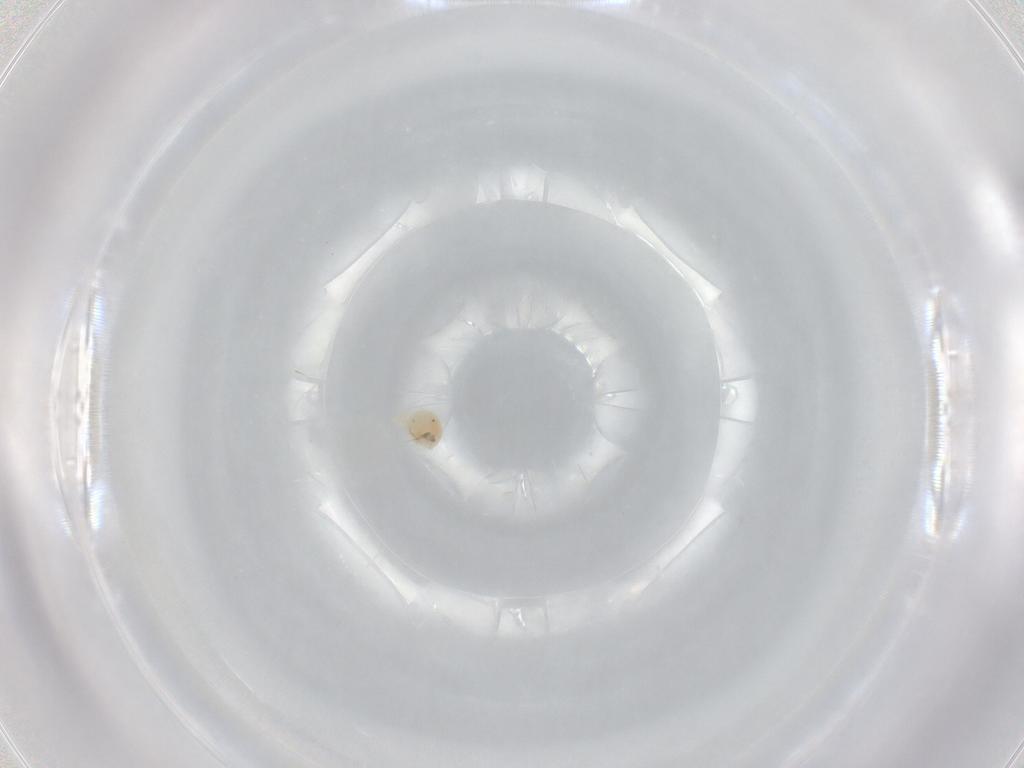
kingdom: Animalia
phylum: Arthropoda
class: Arachnida
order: Trombidiformes
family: Anystidae
